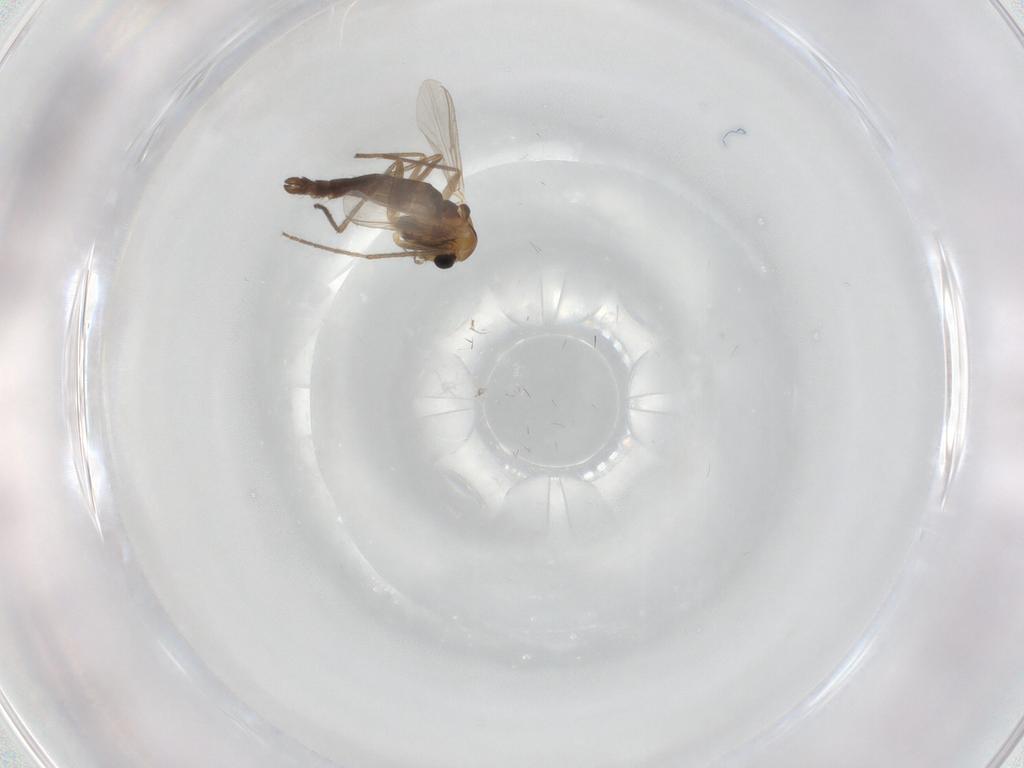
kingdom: Animalia
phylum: Arthropoda
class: Insecta
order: Diptera
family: Chironomidae
